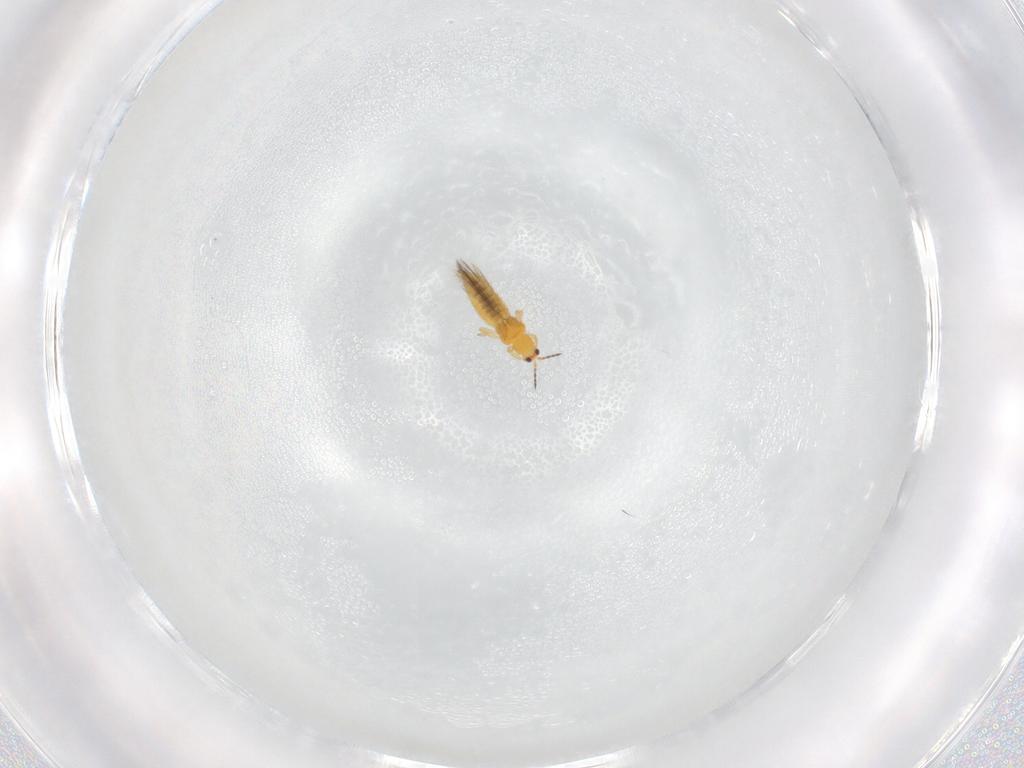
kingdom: Animalia
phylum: Arthropoda
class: Insecta
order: Thysanoptera
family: Thripidae
